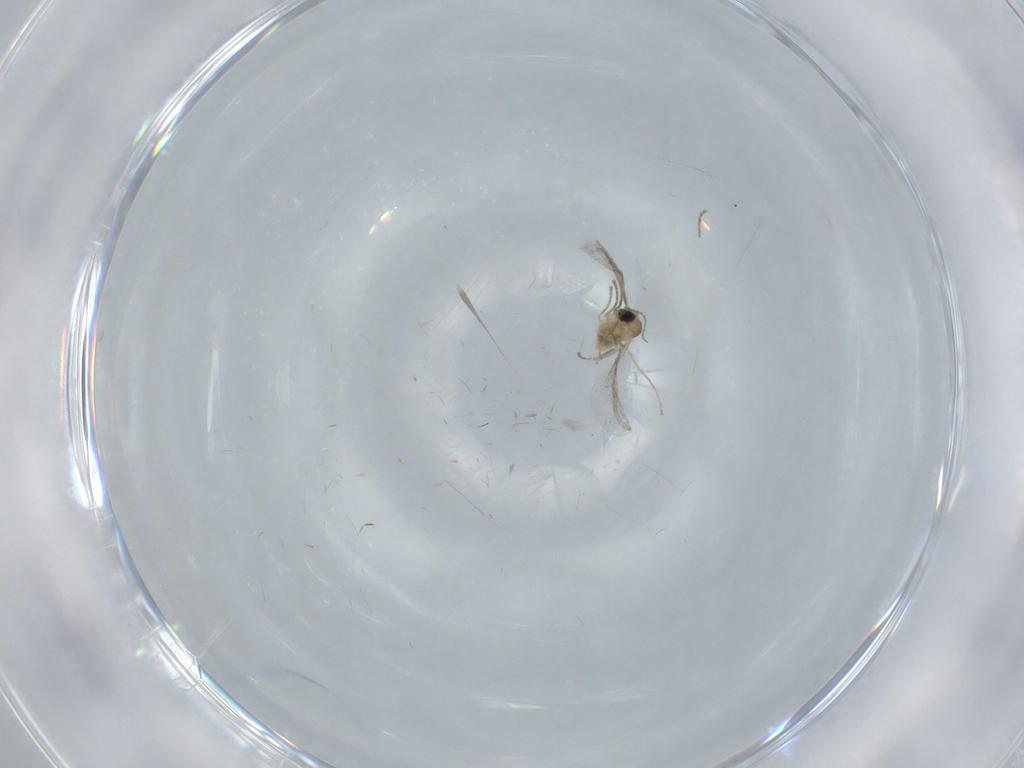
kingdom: Animalia
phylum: Arthropoda
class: Insecta
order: Diptera
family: Cecidomyiidae
